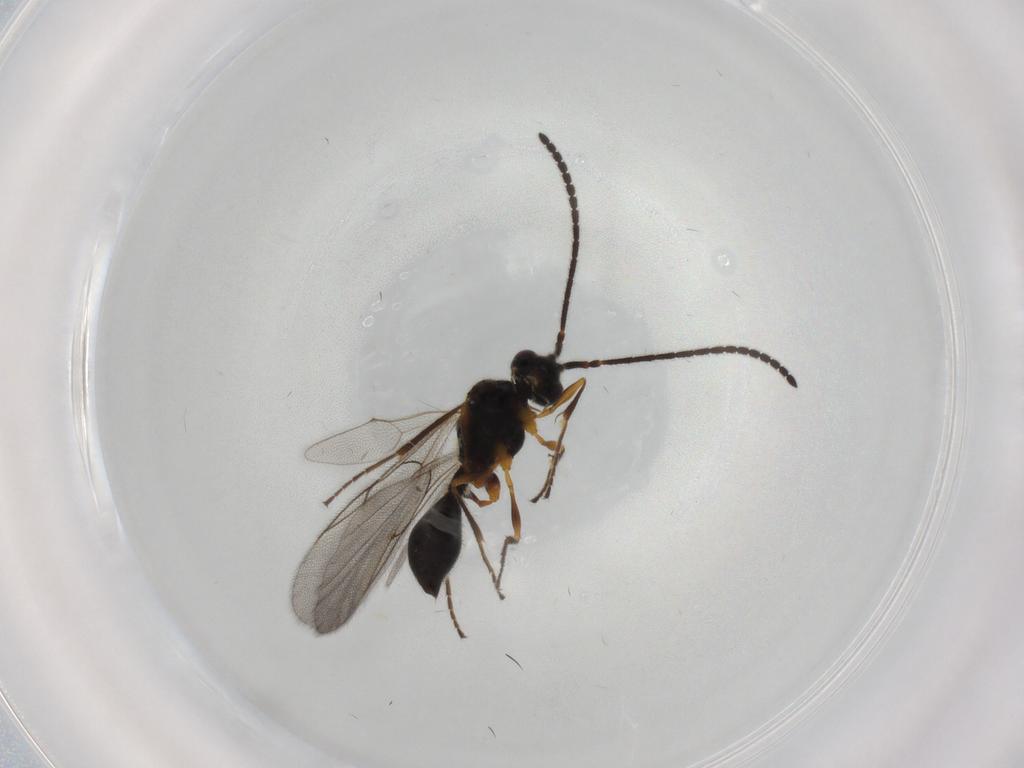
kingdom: Animalia
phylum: Arthropoda
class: Insecta
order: Hymenoptera
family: Diapriidae
